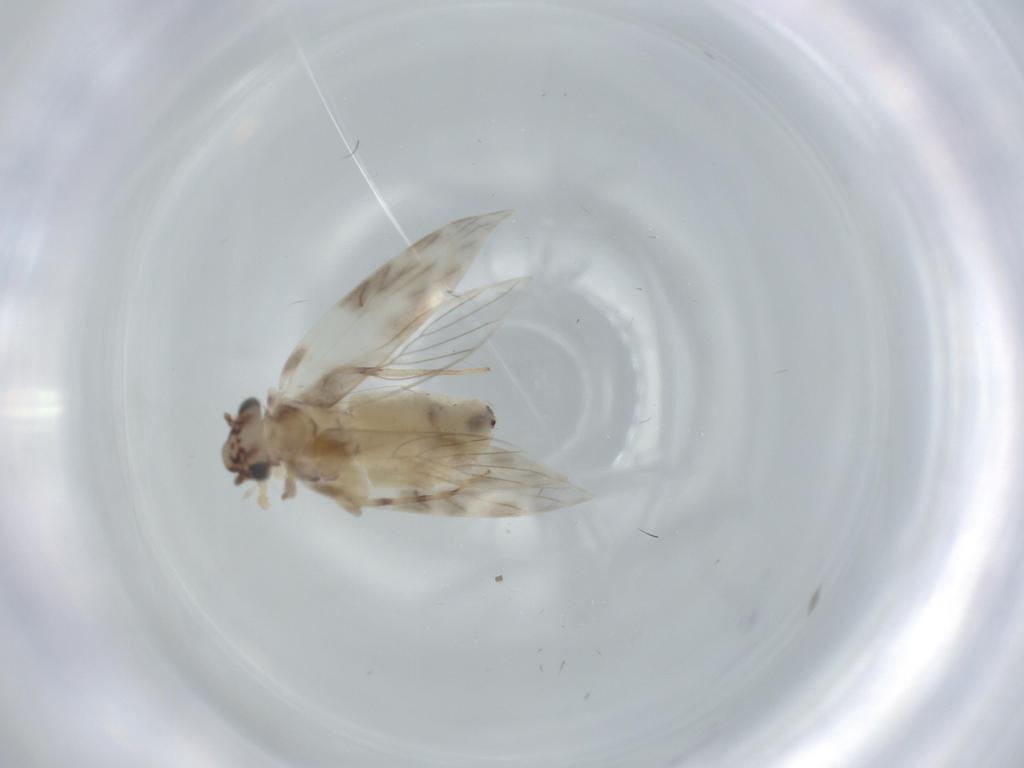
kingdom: Animalia
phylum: Arthropoda
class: Insecta
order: Psocodea
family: Lepidopsocidae
